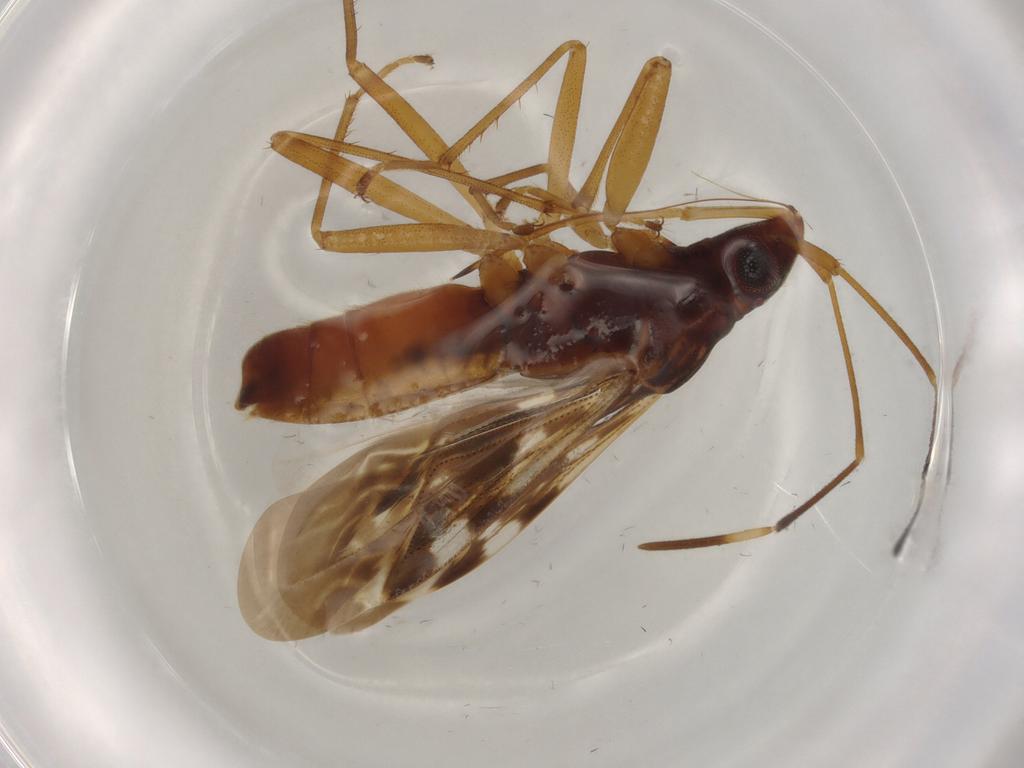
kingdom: Animalia
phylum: Arthropoda
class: Insecta
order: Hemiptera
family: Rhyparochromidae
